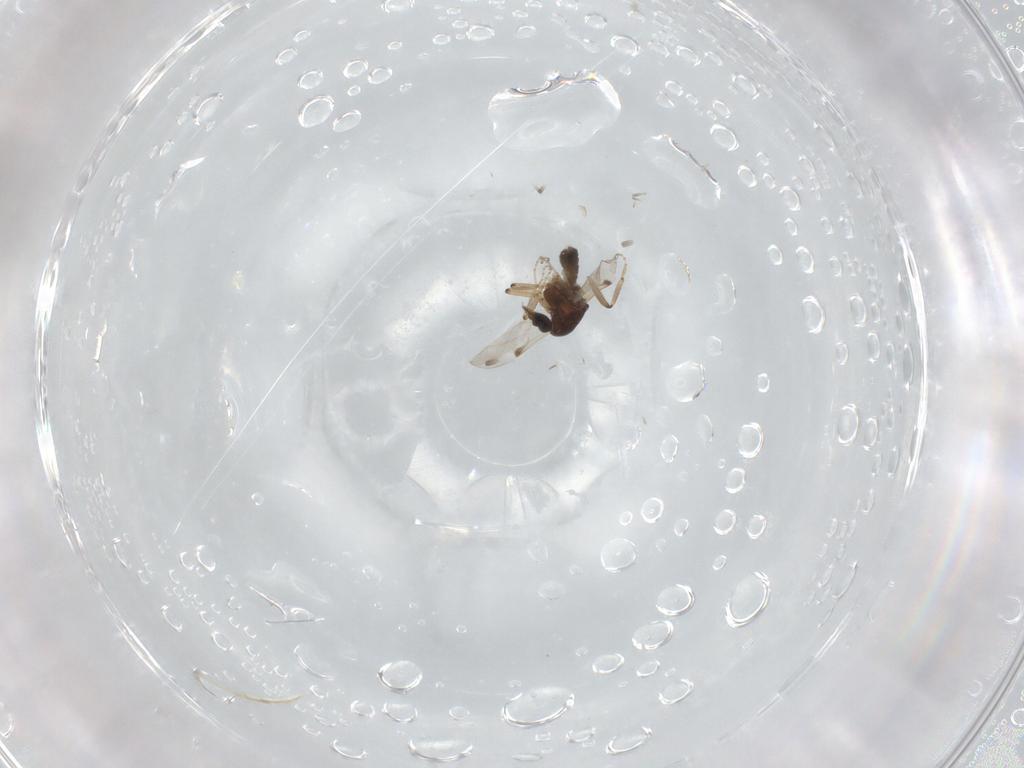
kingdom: Animalia
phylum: Arthropoda
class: Insecta
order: Diptera
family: Ceratopogonidae
